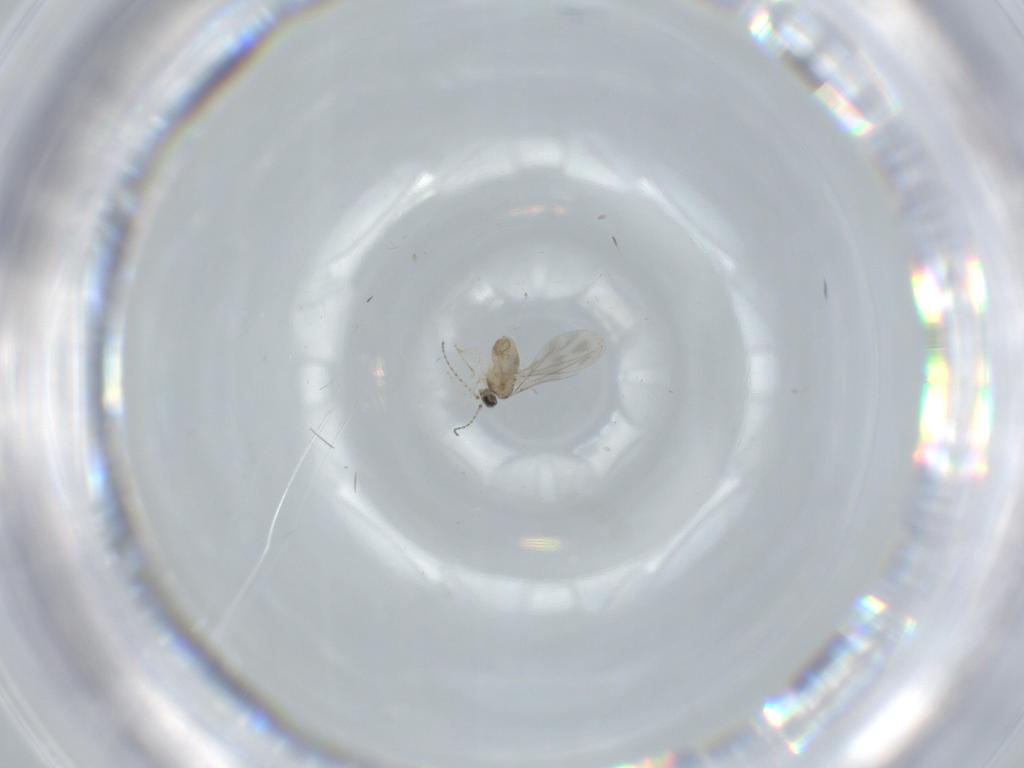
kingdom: Animalia
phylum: Arthropoda
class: Insecta
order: Diptera
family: Cecidomyiidae
